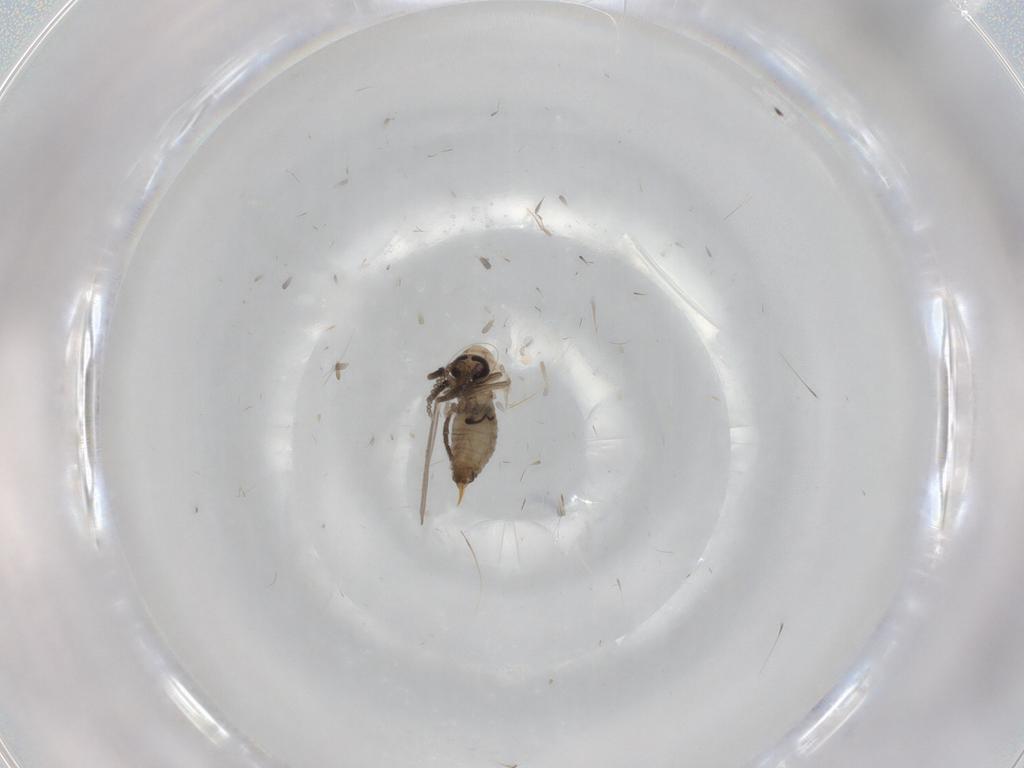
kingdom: Animalia
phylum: Arthropoda
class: Insecta
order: Diptera
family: Psychodidae
